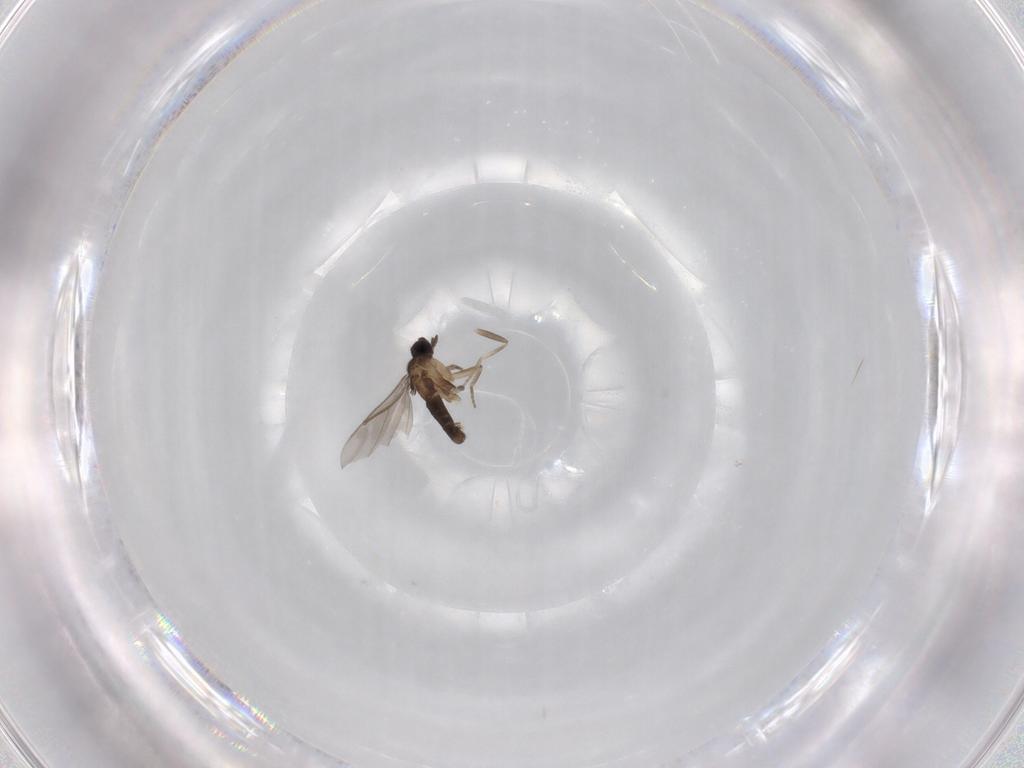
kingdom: Animalia
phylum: Arthropoda
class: Insecta
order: Diptera
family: Phoridae
